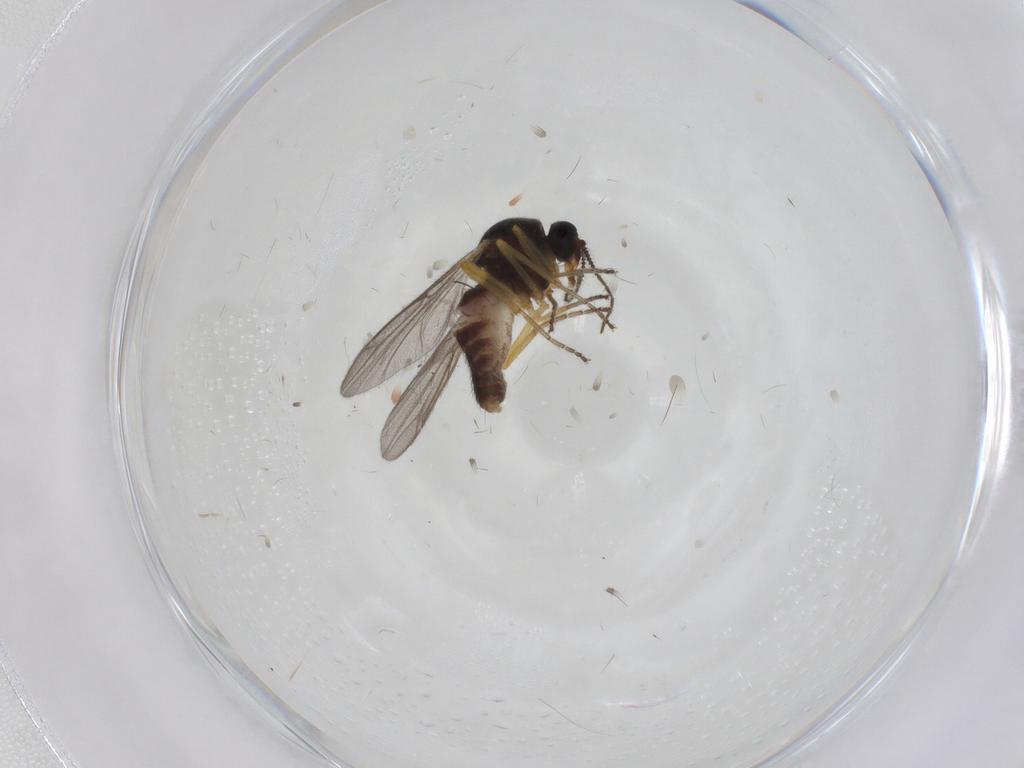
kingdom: Animalia
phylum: Arthropoda
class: Insecta
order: Diptera
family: Ceratopogonidae
